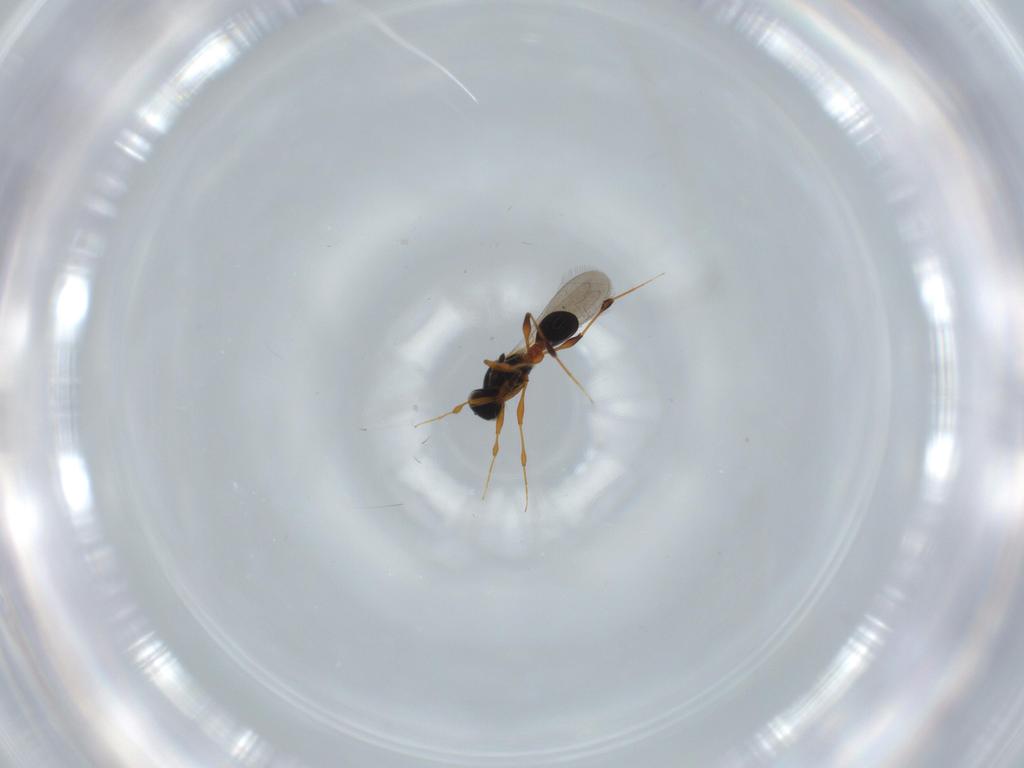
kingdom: Animalia
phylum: Arthropoda
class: Insecta
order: Hymenoptera
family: Platygastridae
